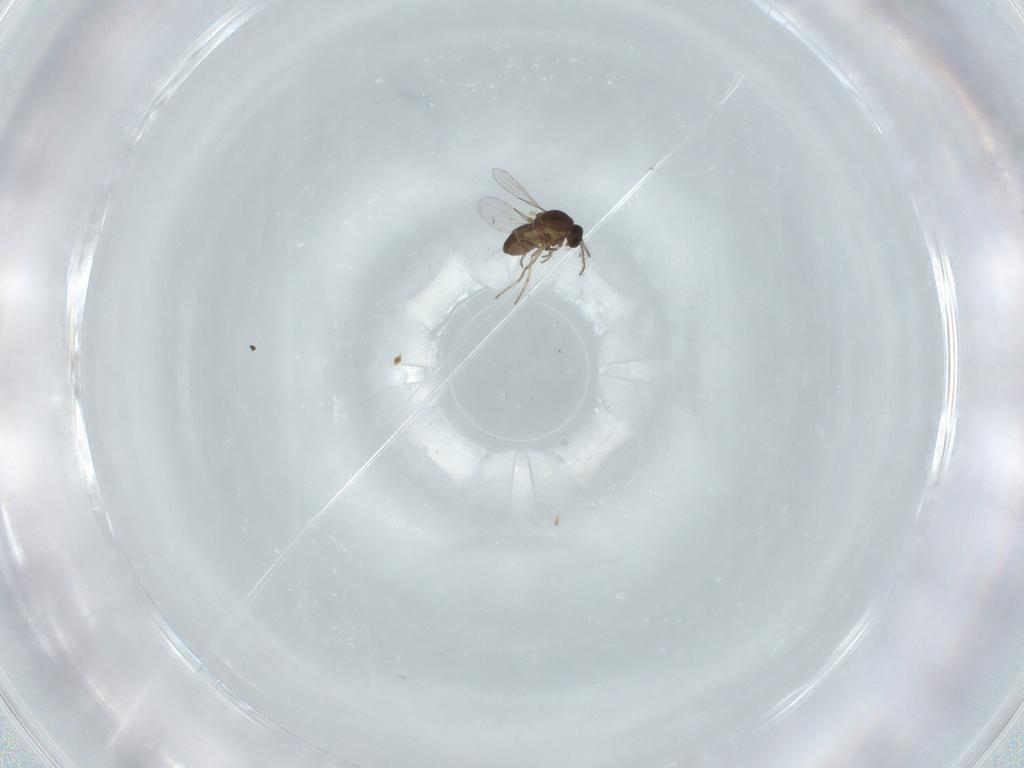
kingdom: Animalia
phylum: Arthropoda
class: Insecta
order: Diptera
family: Ceratopogonidae
